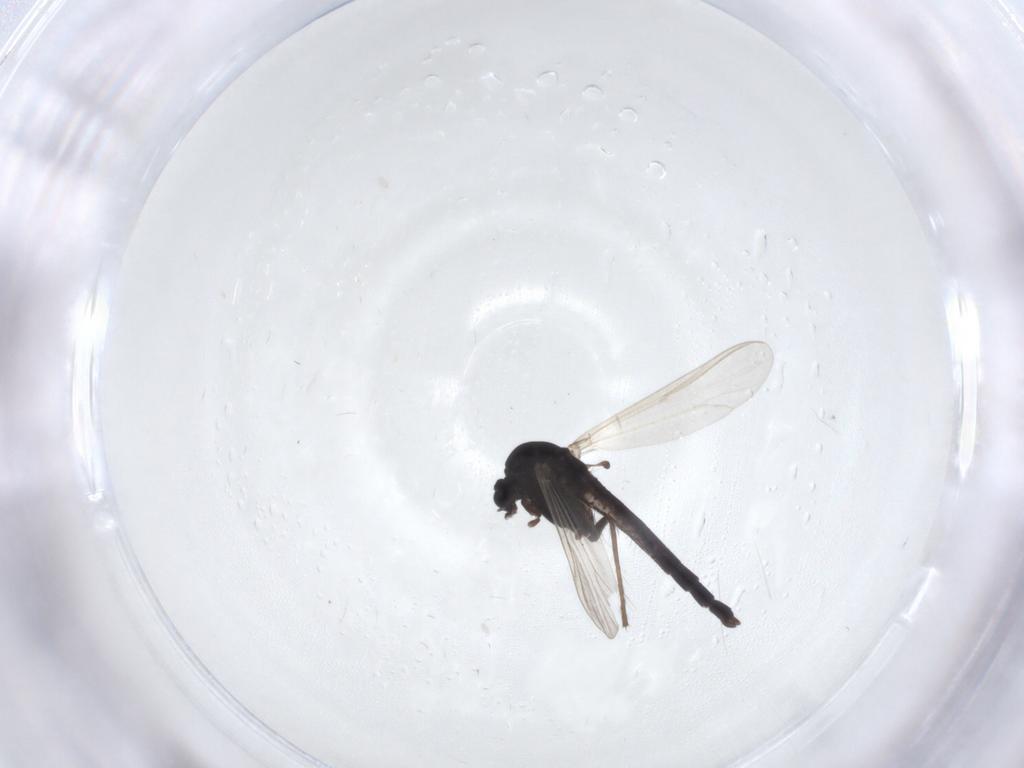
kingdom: Animalia
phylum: Arthropoda
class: Insecta
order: Diptera
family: Chironomidae
